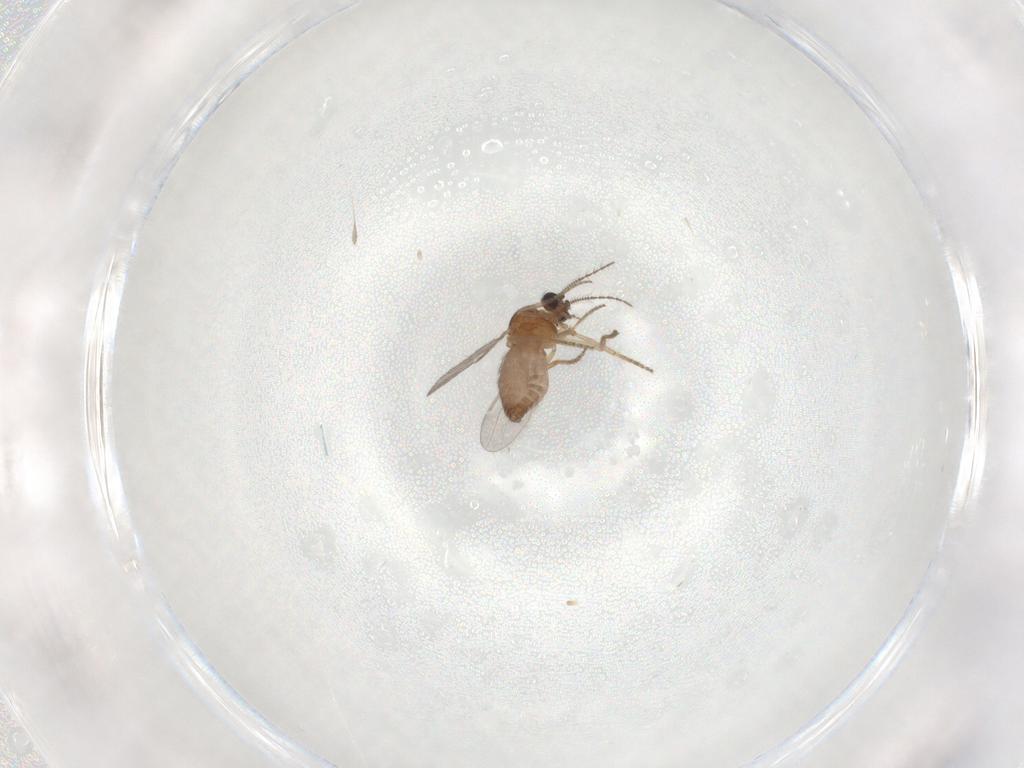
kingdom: Animalia
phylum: Arthropoda
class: Insecta
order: Diptera
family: Ceratopogonidae
